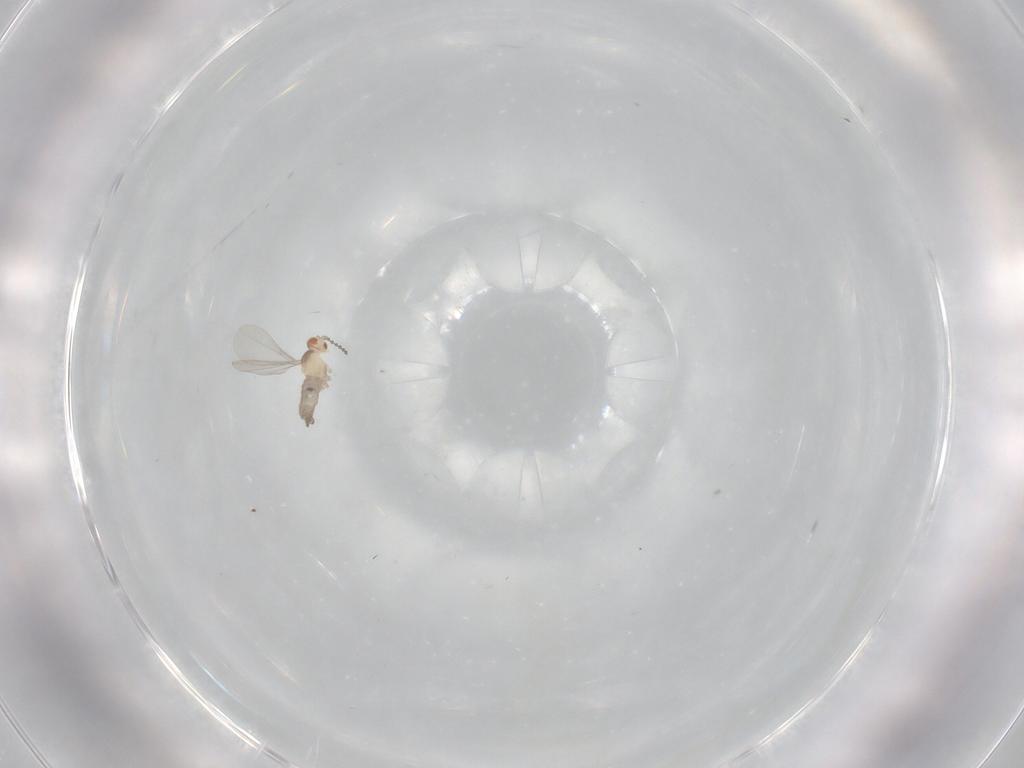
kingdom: Animalia
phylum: Arthropoda
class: Insecta
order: Diptera
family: Cecidomyiidae
